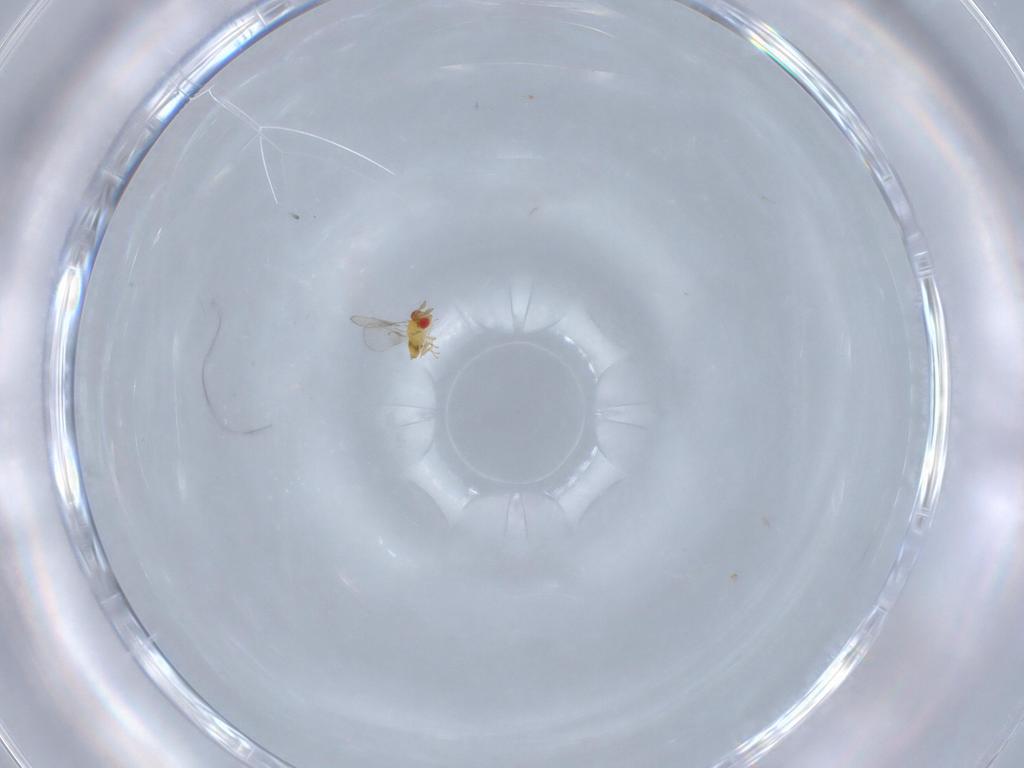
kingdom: Animalia
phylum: Arthropoda
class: Insecta
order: Hymenoptera
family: Trichogrammatidae
